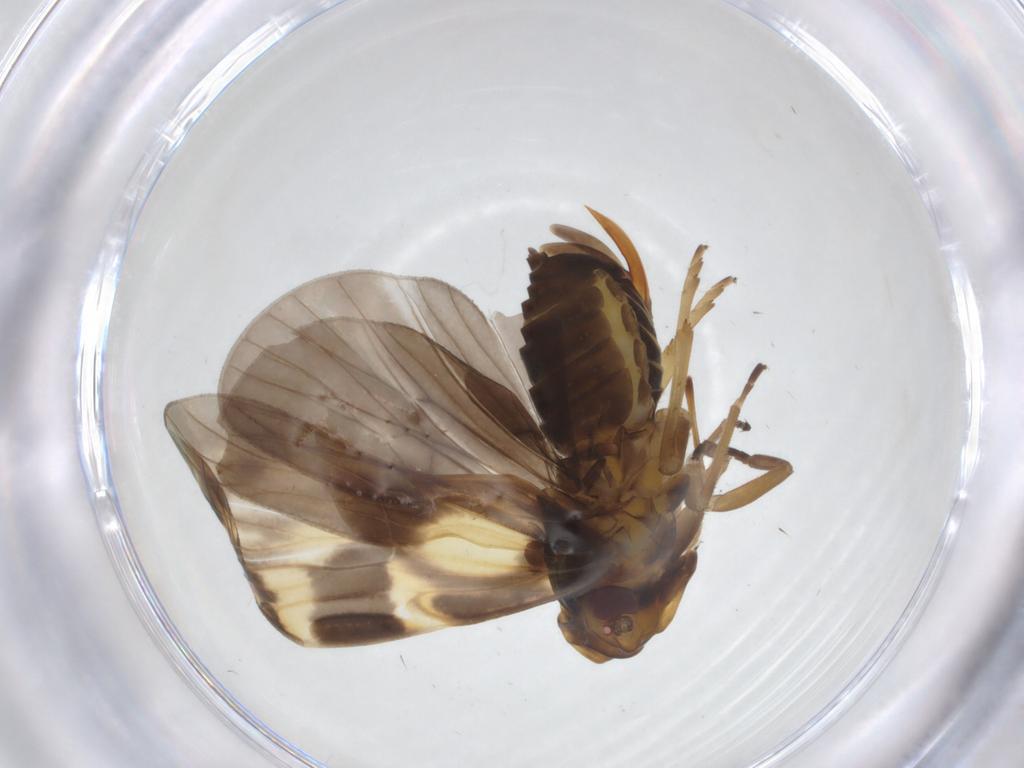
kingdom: Animalia
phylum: Arthropoda
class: Insecta
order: Hemiptera
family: Cixiidae
